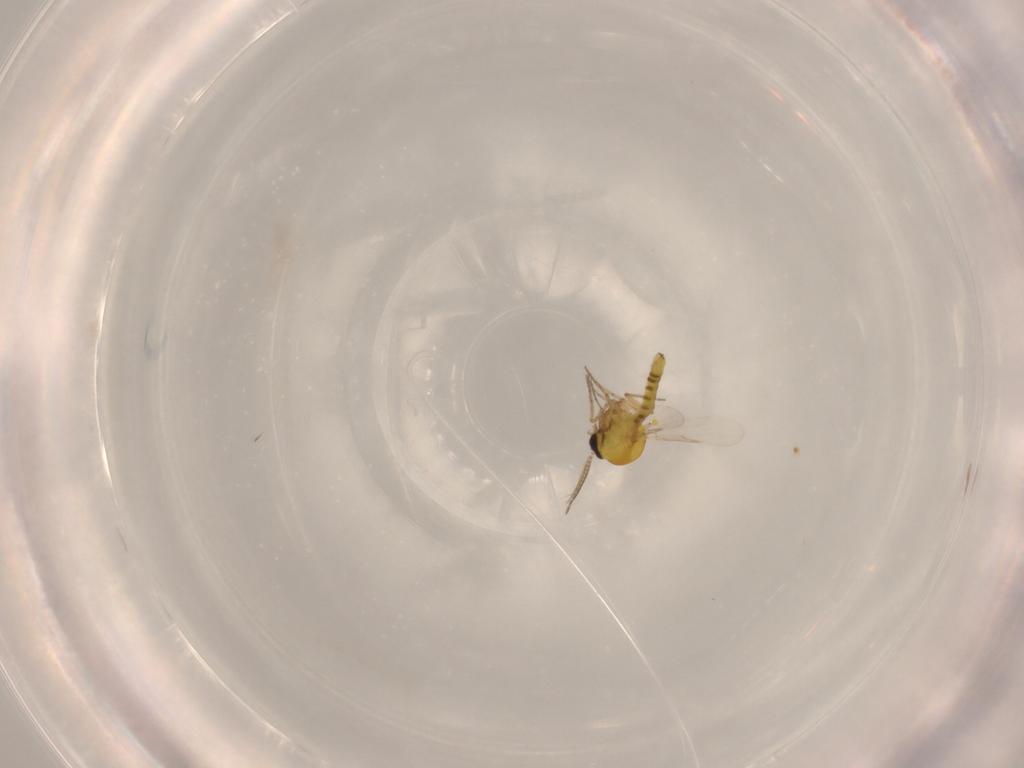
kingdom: Animalia
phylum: Arthropoda
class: Insecta
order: Diptera
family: Ceratopogonidae
